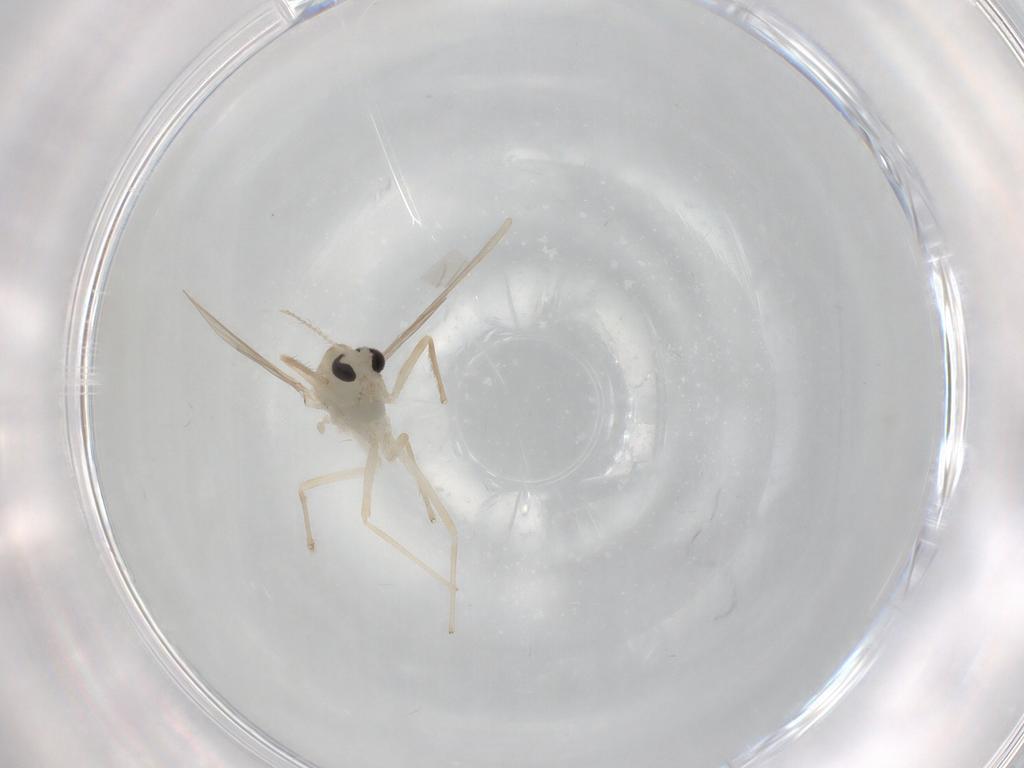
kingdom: Animalia
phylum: Arthropoda
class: Insecta
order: Diptera
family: Chironomidae
